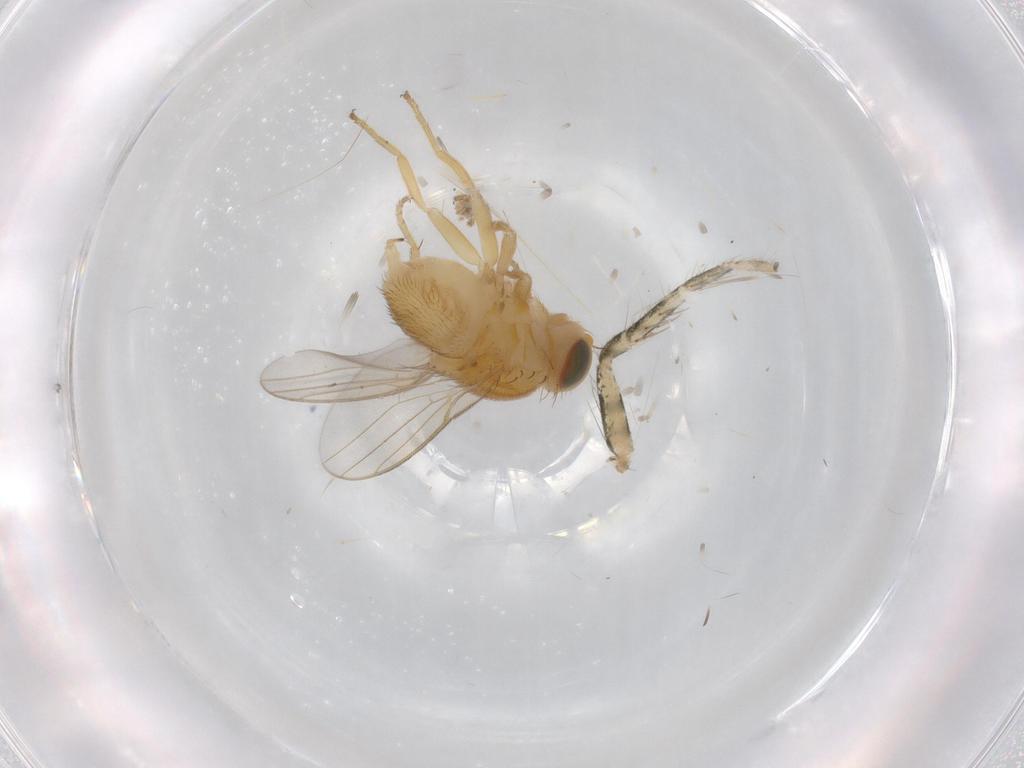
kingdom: Animalia
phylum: Arthropoda
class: Insecta
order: Diptera
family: Chloropidae
